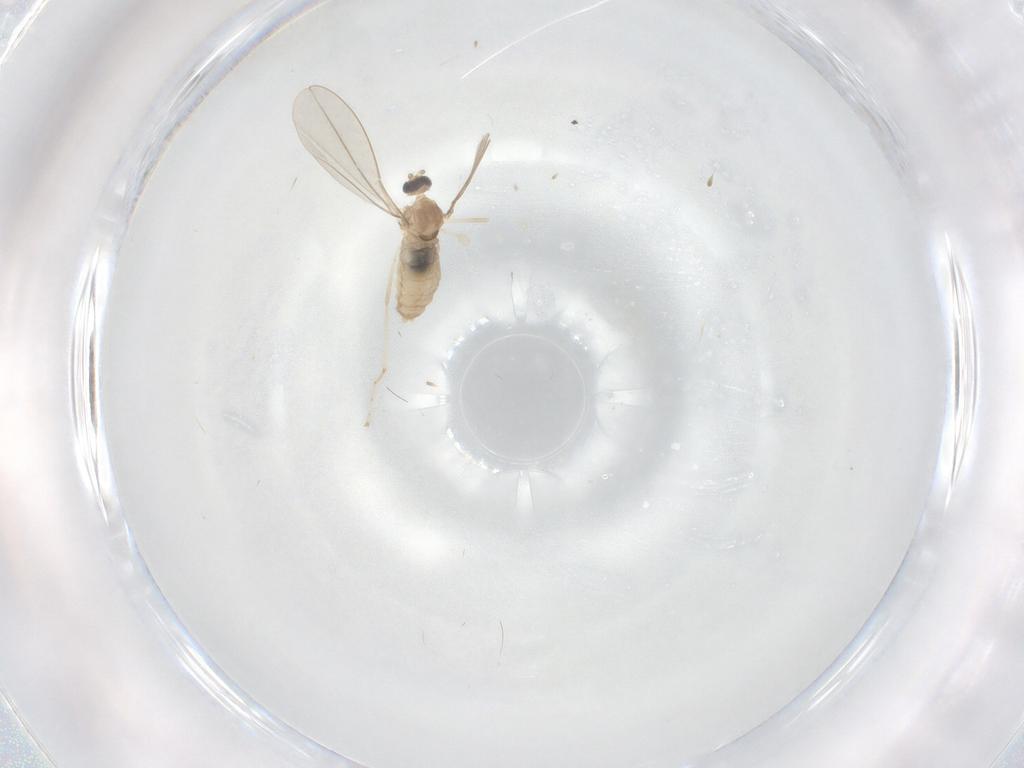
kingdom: Animalia
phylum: Arthropoda
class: Insecta
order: Diptera
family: Cecidomyiidae
